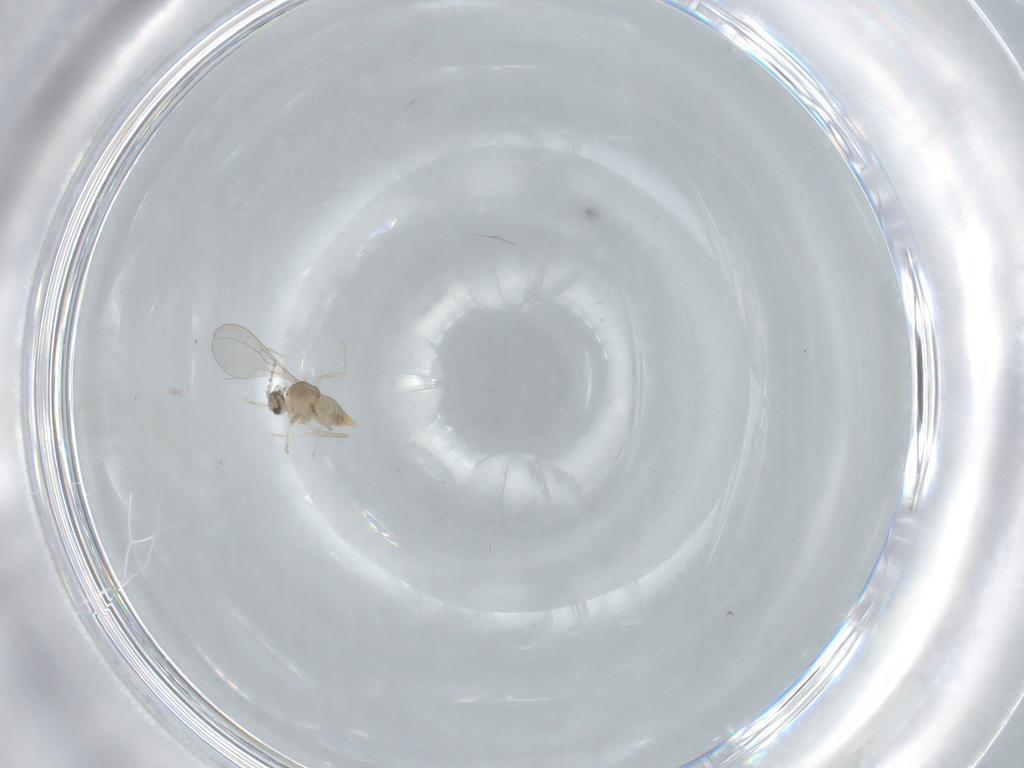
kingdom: Animalia
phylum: Arthropoda
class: Insecta
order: Diptera
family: Cecidomyiidae
